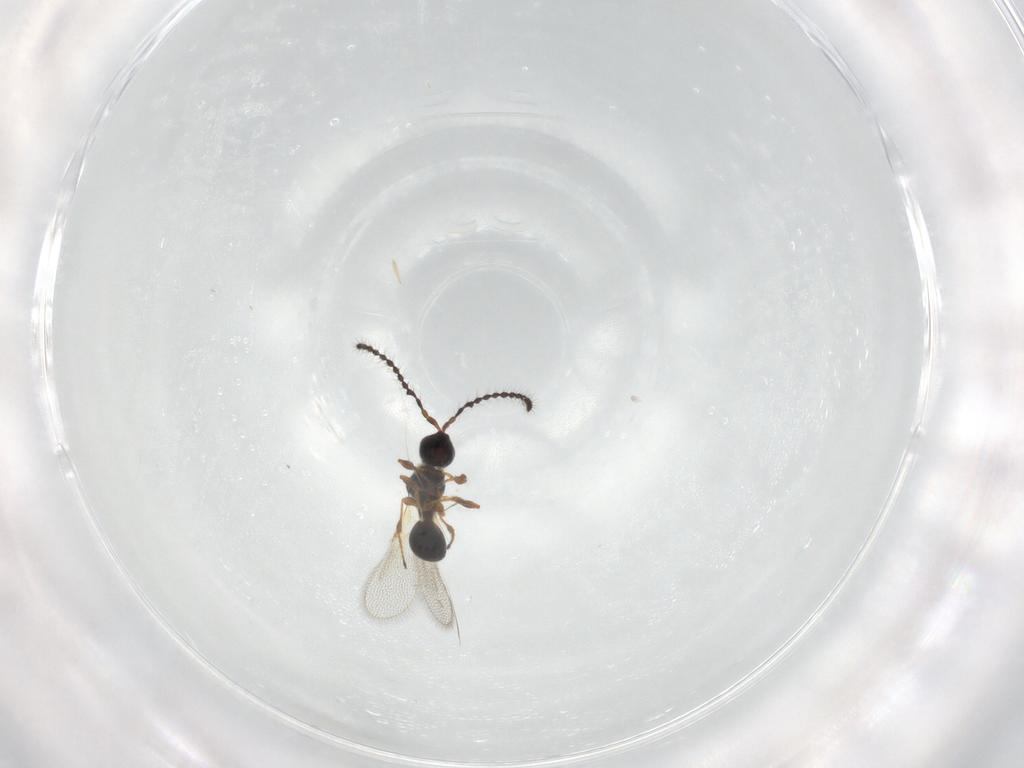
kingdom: Animalia
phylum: Arthropoda
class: Insecta
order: Hymenoptera
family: Diapriidae
